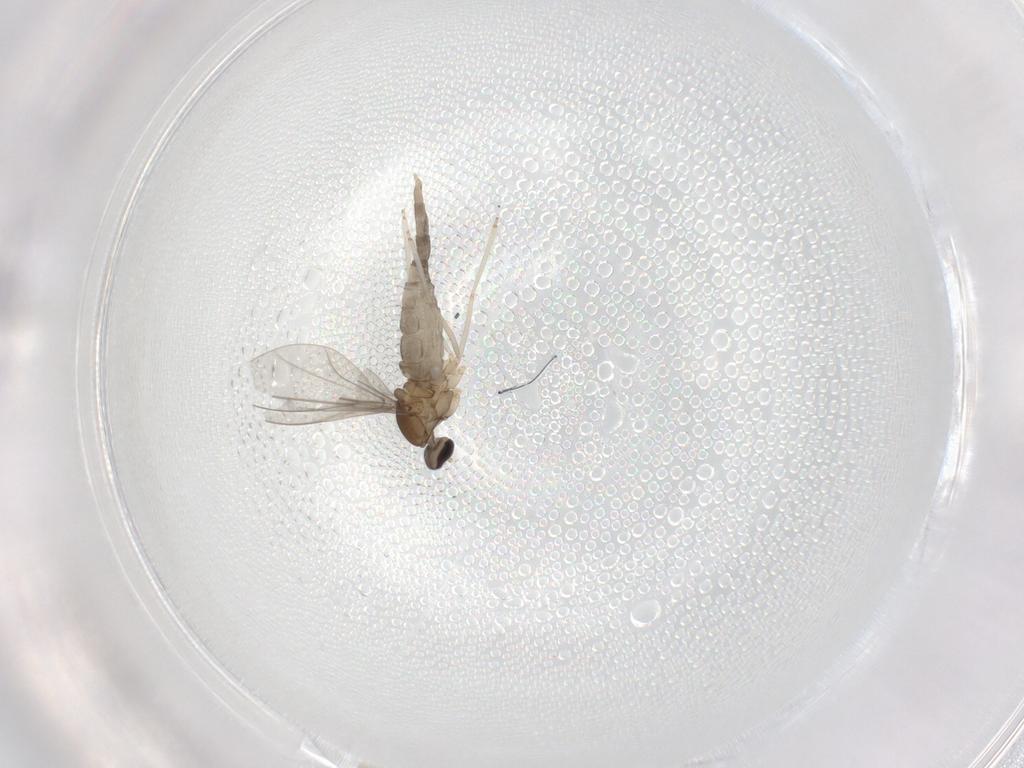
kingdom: Animalia
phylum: Arthropoda
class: Insecta
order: Diptera
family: Cecidomyiidae
